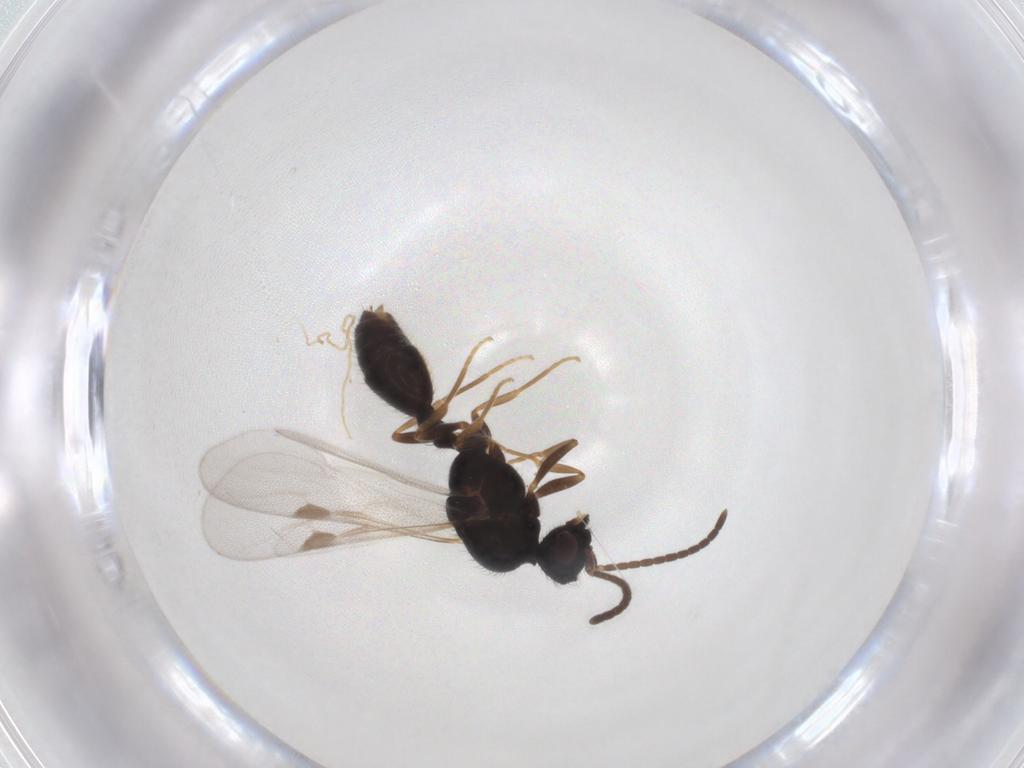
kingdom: Animalia
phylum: Arthropoda
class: Insecta
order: Hymenoptera
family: Formicidae
